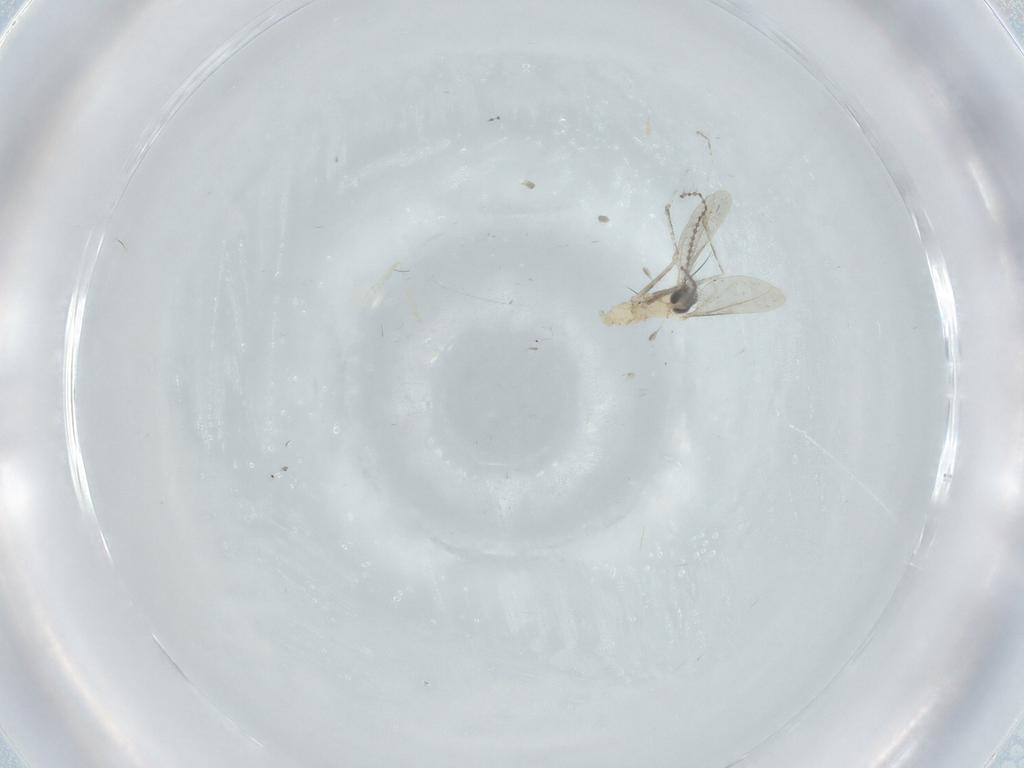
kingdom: Animalia
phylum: Arthropoda
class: Insecta
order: Diptera
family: Cecidomyiidae
